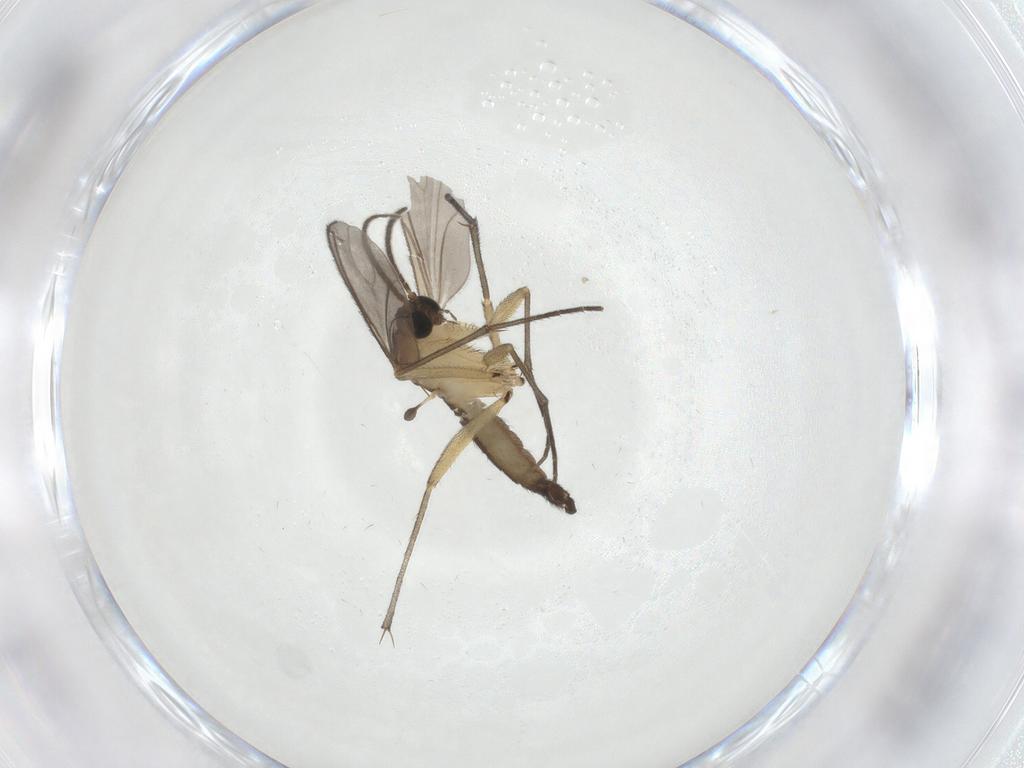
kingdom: Animalia
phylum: Arthropoda
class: Insecta
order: Diptera
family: Sciaridae
